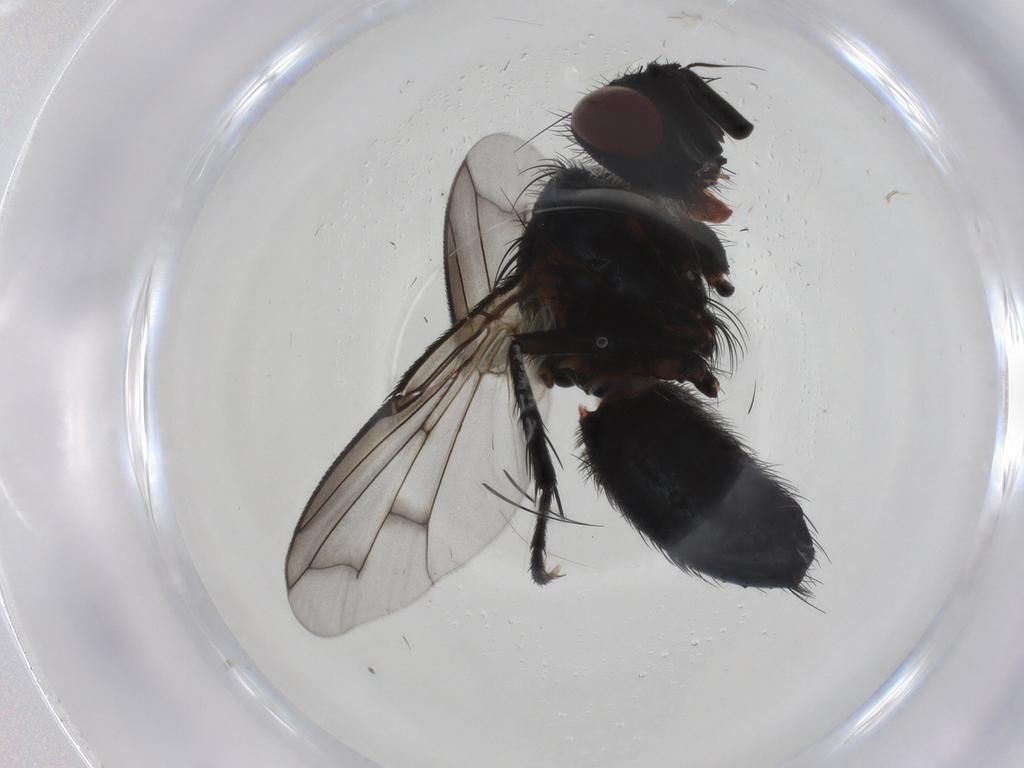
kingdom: Animalia
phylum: Arthropoda
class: Insecta
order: Diptera
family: Tachinidae
